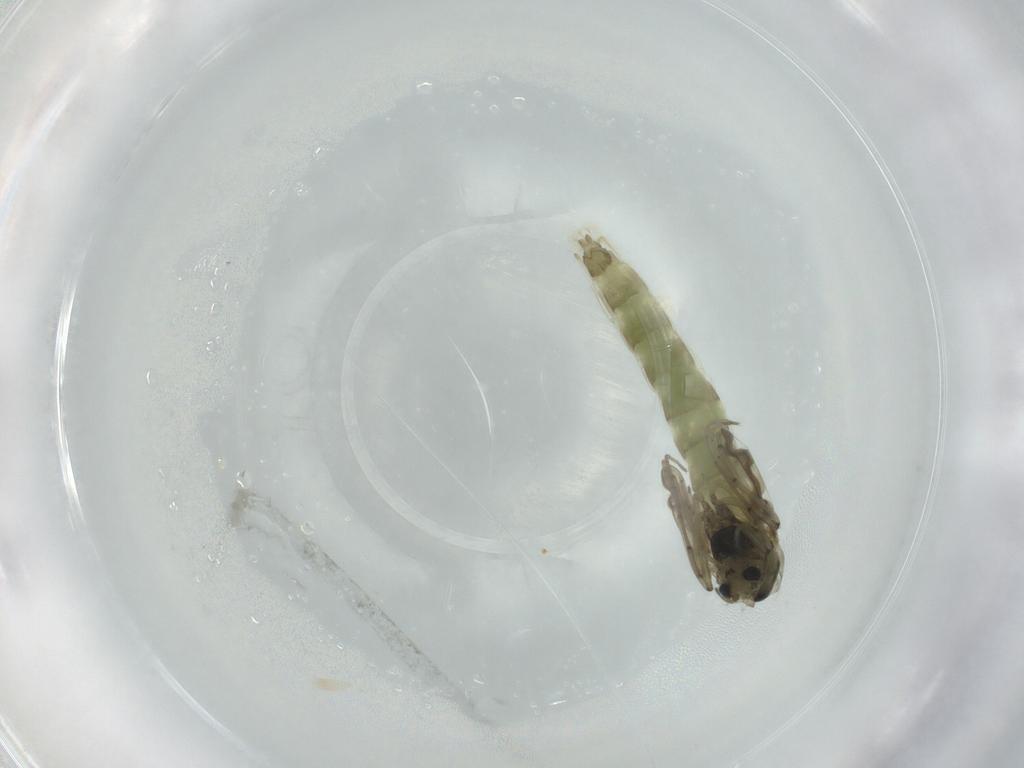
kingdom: Animalia
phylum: Arthropoda
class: Insecta
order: Diptera
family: Chironomidae
